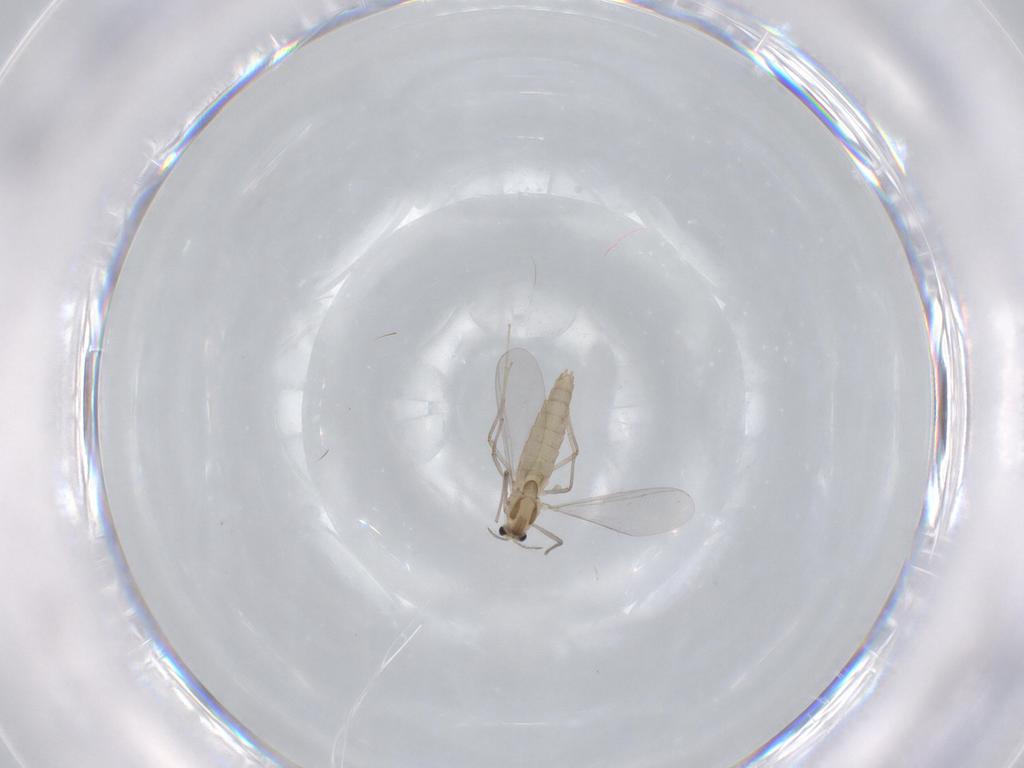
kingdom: Animalia
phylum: Arthropoda
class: Insecta
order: Diptera
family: Chironomidae
